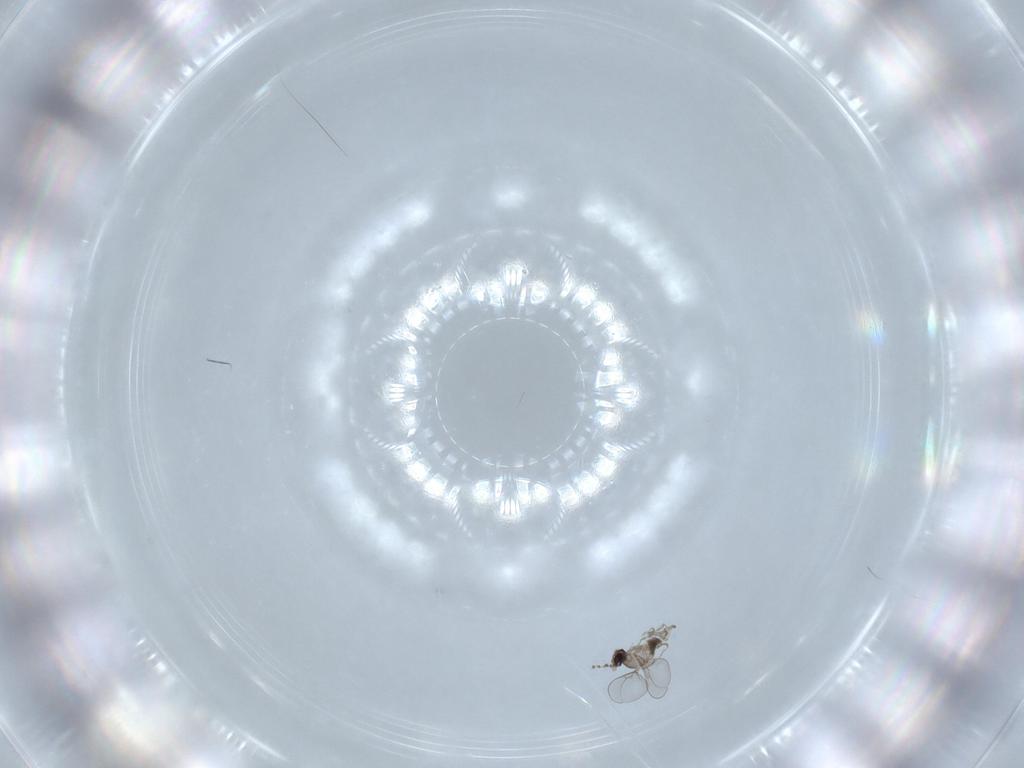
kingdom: Animalia
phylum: Arthropoda
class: Insecta
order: Diptera
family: Cecidomyiidae
